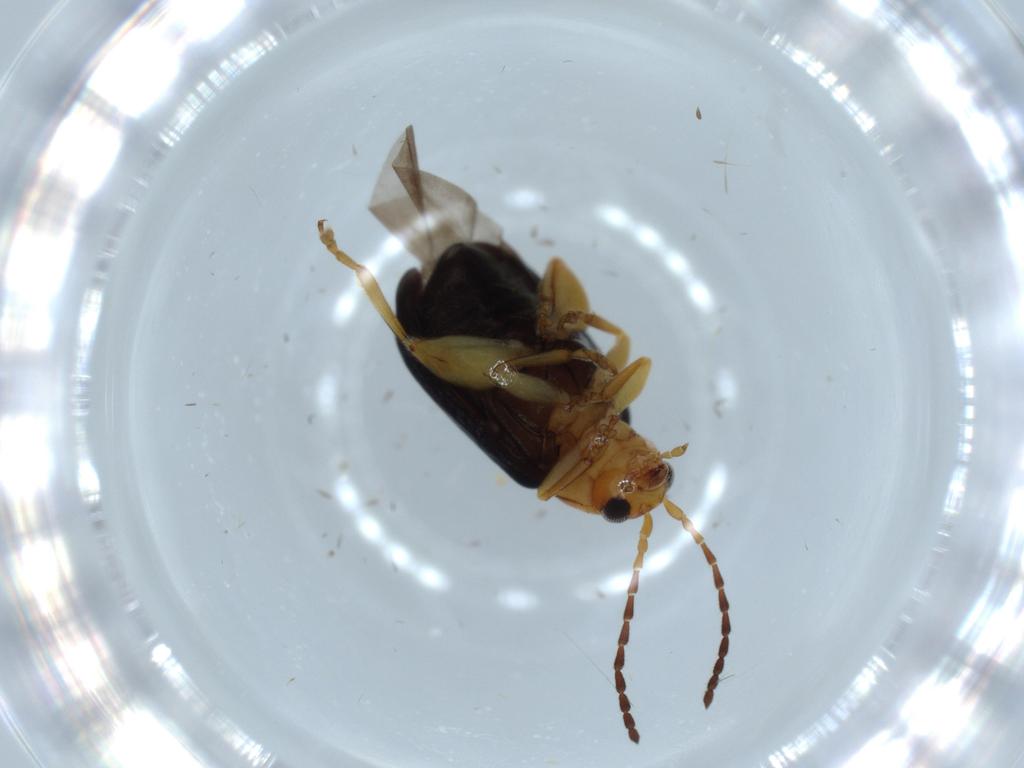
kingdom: Animalia
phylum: Arthropoda
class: Insecta
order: Coleoptera
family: Chrysomelidae
